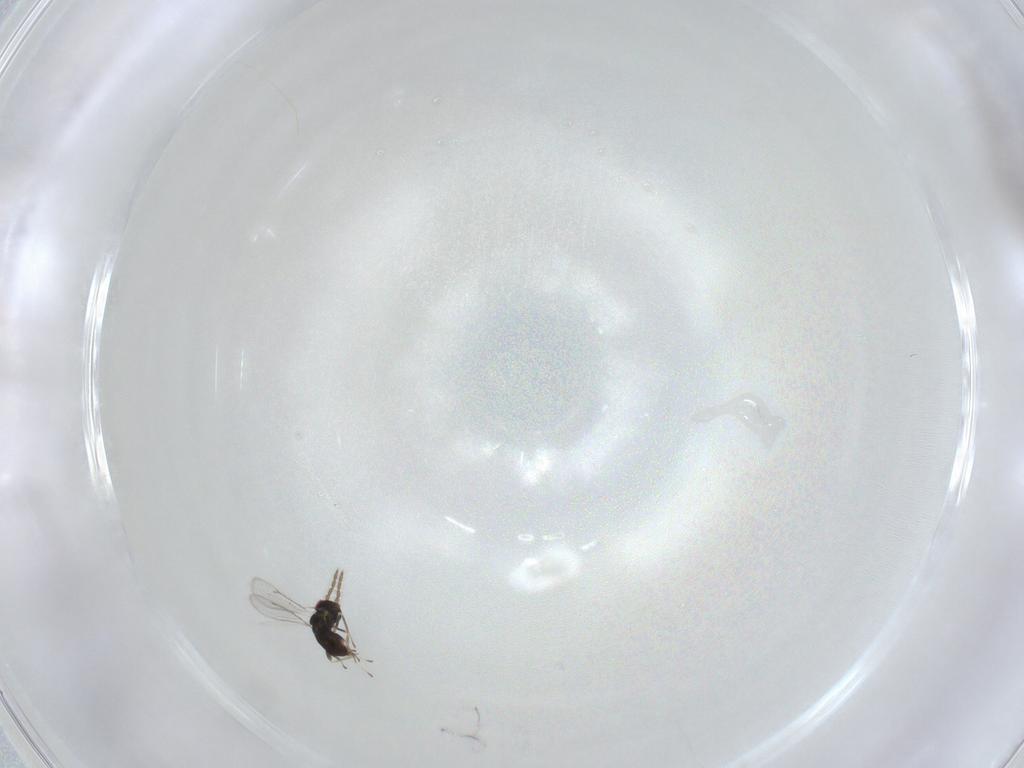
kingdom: Animalia
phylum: Arthropoda
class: Insecta
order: Hymenoptera
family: Eulophidae
